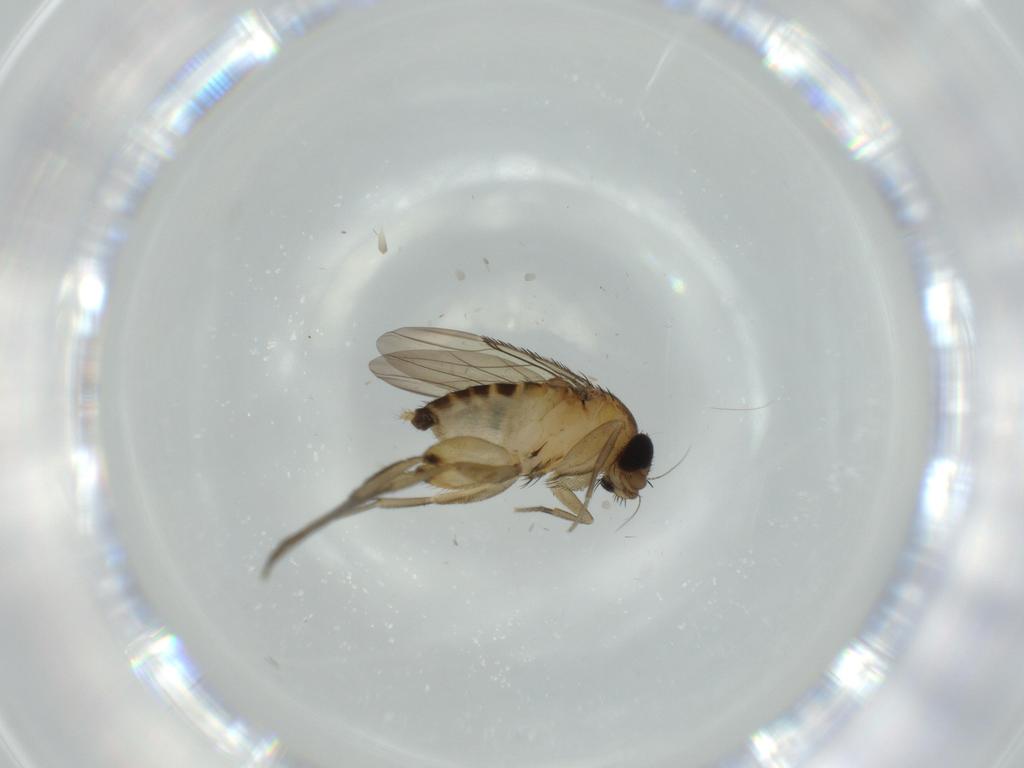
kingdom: Animalia
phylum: Arthropoda
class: Insecta
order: Diptera
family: Phoridae
